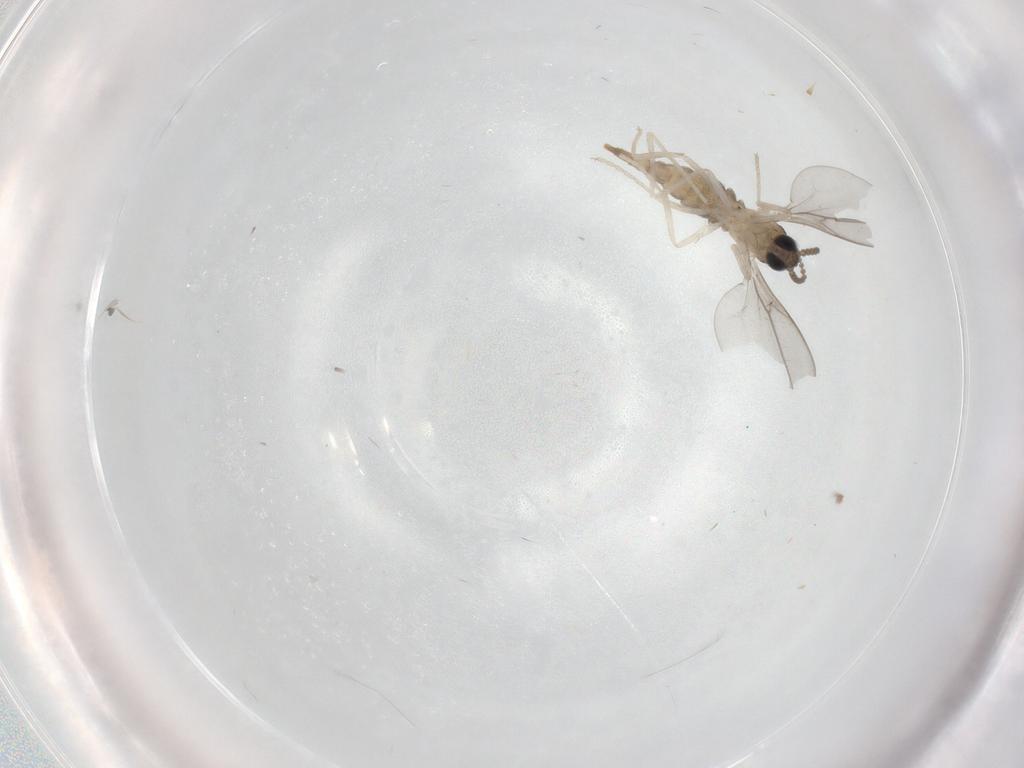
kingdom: Animalia
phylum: Arthropoda
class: Insecta
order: Diptera
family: Cecidomyiidae
